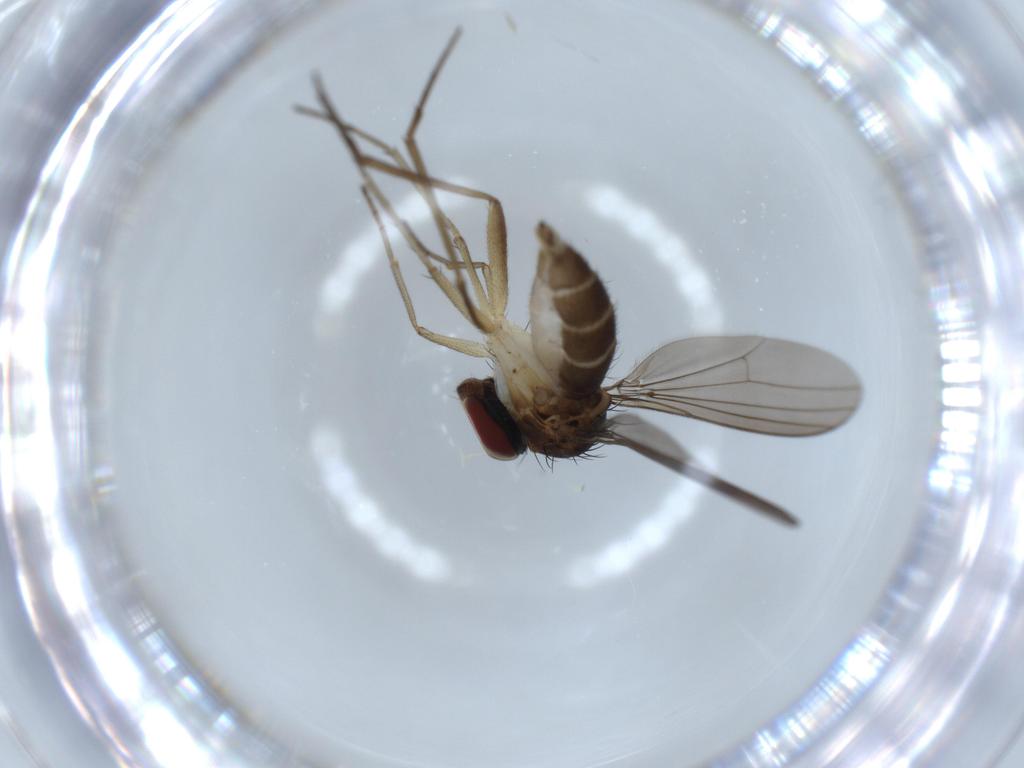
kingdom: Animalia
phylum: Arthropoda
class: Insecta
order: Diptera
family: Dolichopodidae
